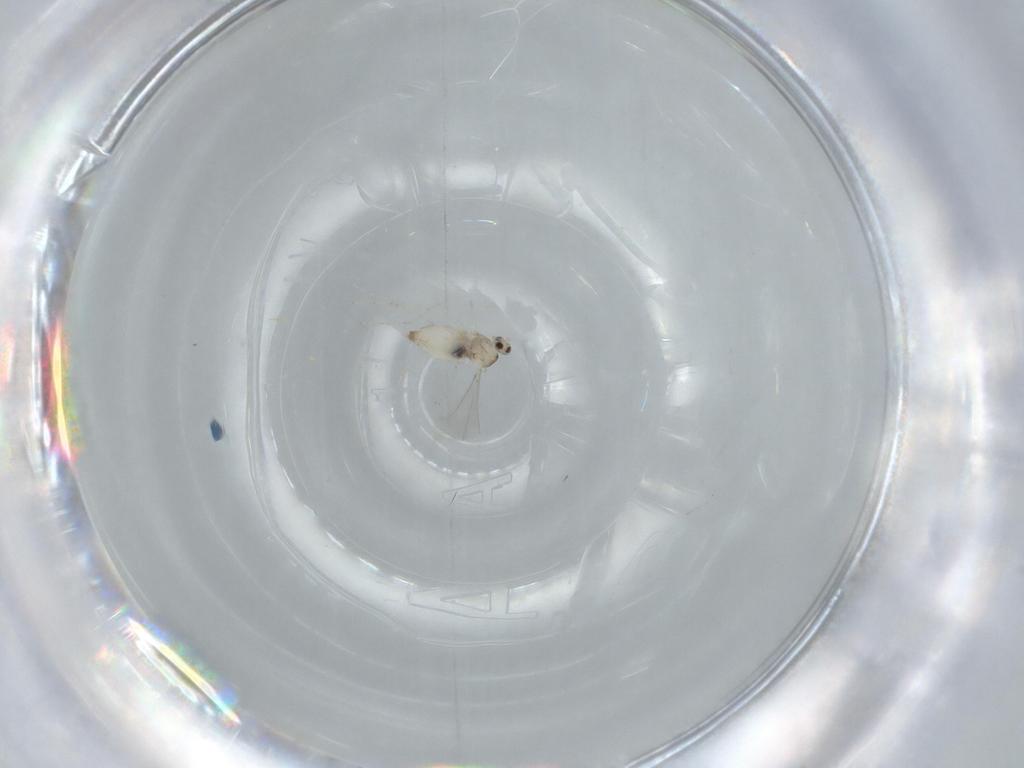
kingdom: Animalia
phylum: Arthropoda
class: Insecta
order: Diptera
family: Cecidomyiidae
